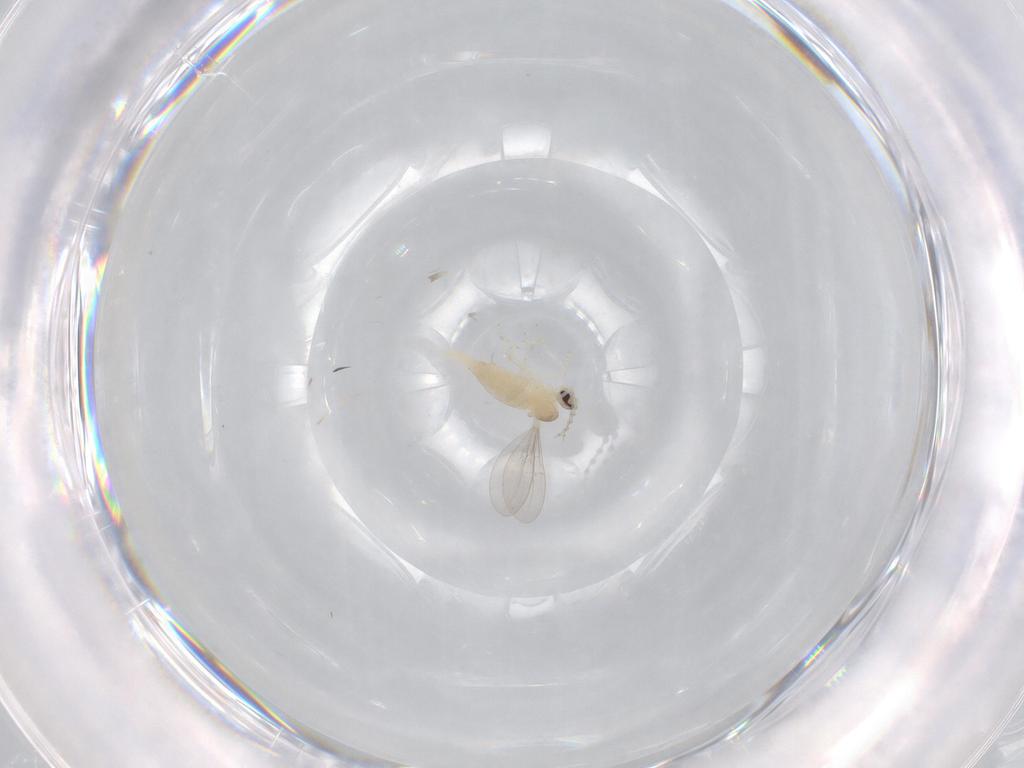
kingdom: Animalia
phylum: Arthropoda
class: Insecta
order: Diptera
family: Cecidomyiidae
